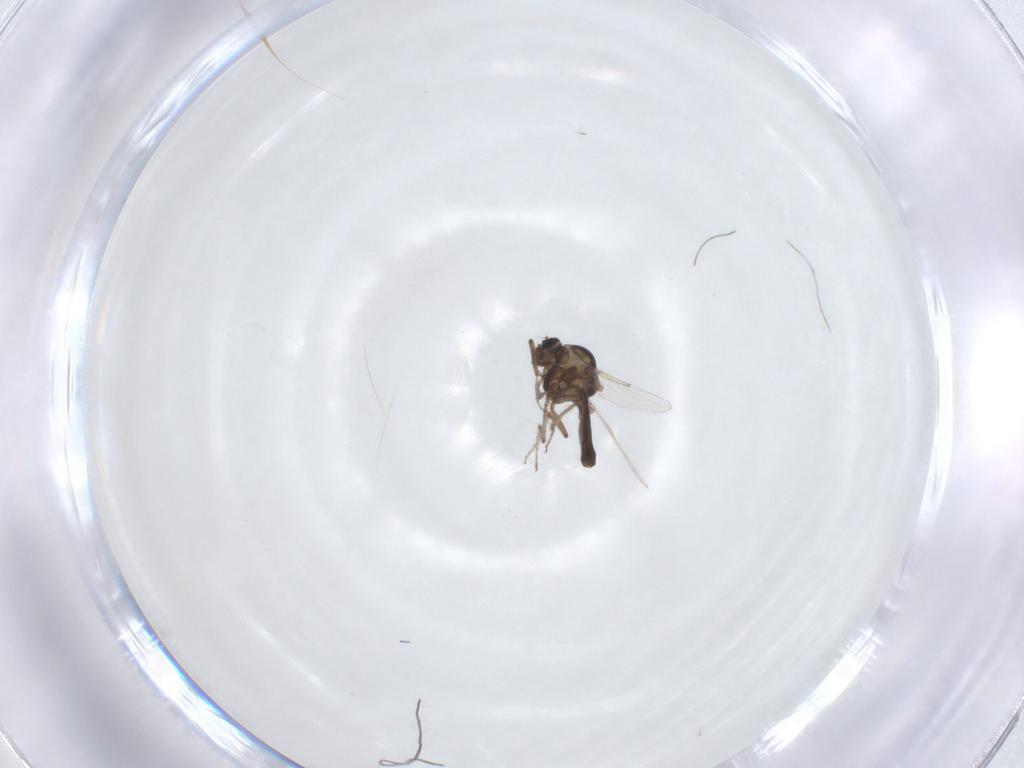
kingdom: Animalia
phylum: Arthropoda
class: Insecta
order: Diptera
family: Ceratopogonidae
